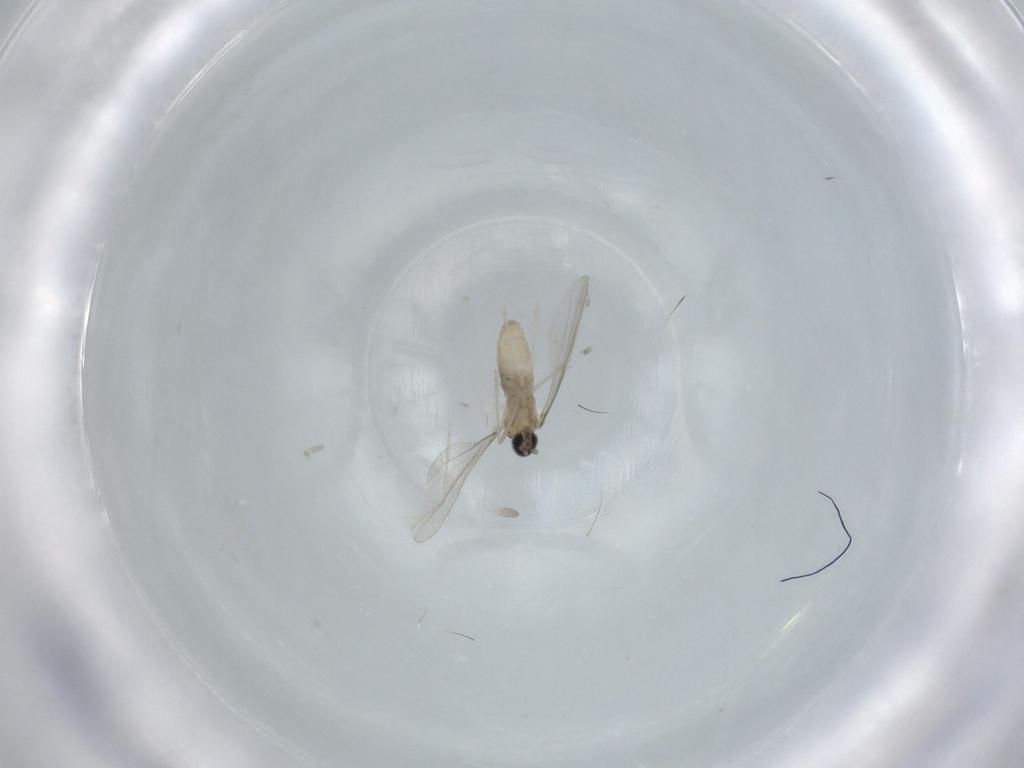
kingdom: Animalia
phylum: Arthropoda
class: Insecta
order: Diptera
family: Cecidomyiidae
